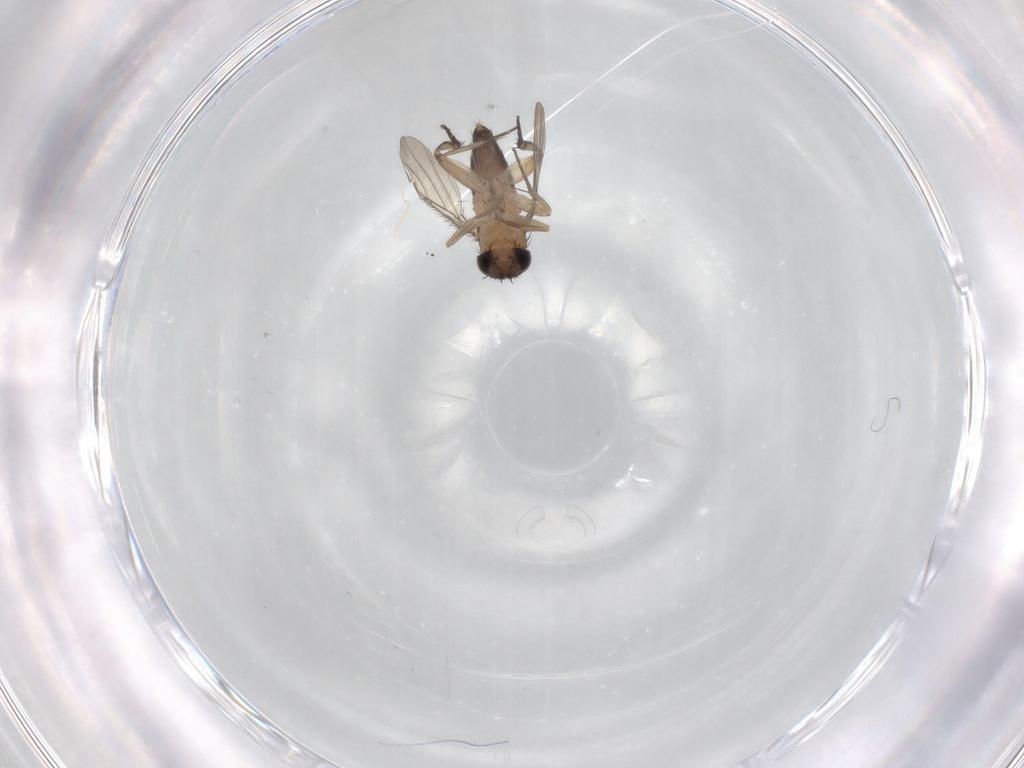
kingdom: Animalia
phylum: Arthropoda
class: Insecta
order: Diptera
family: Phoridae
